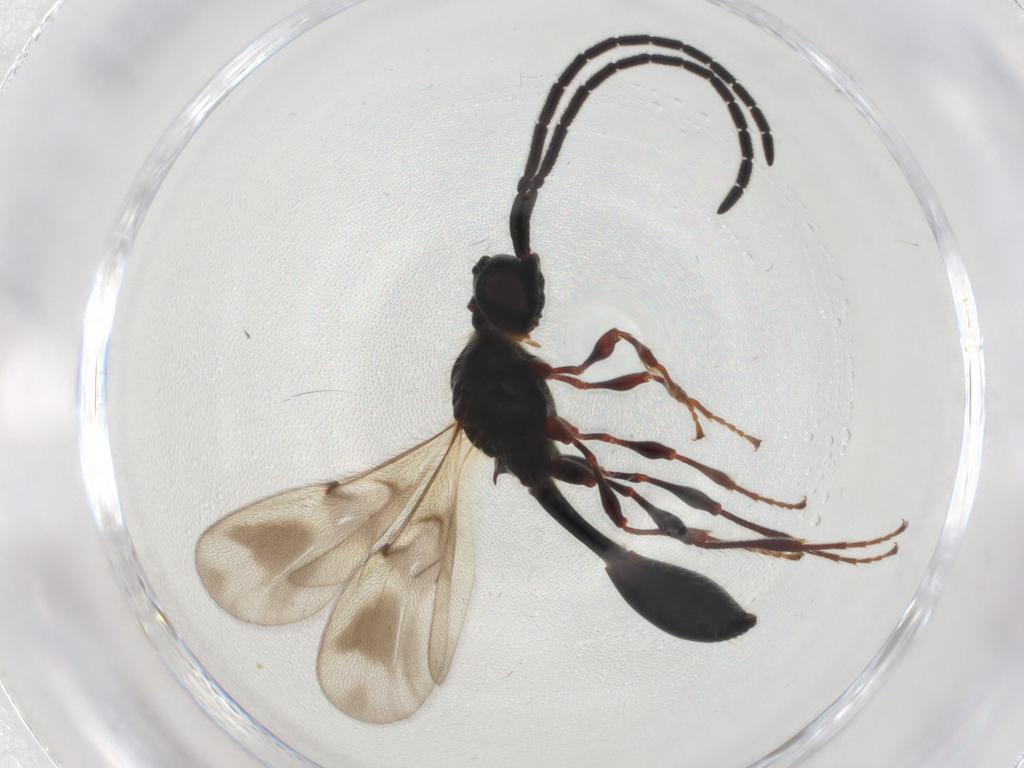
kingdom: Animalia
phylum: Arthropoda
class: Insecta
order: Hymenoptera
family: Diapriidae
